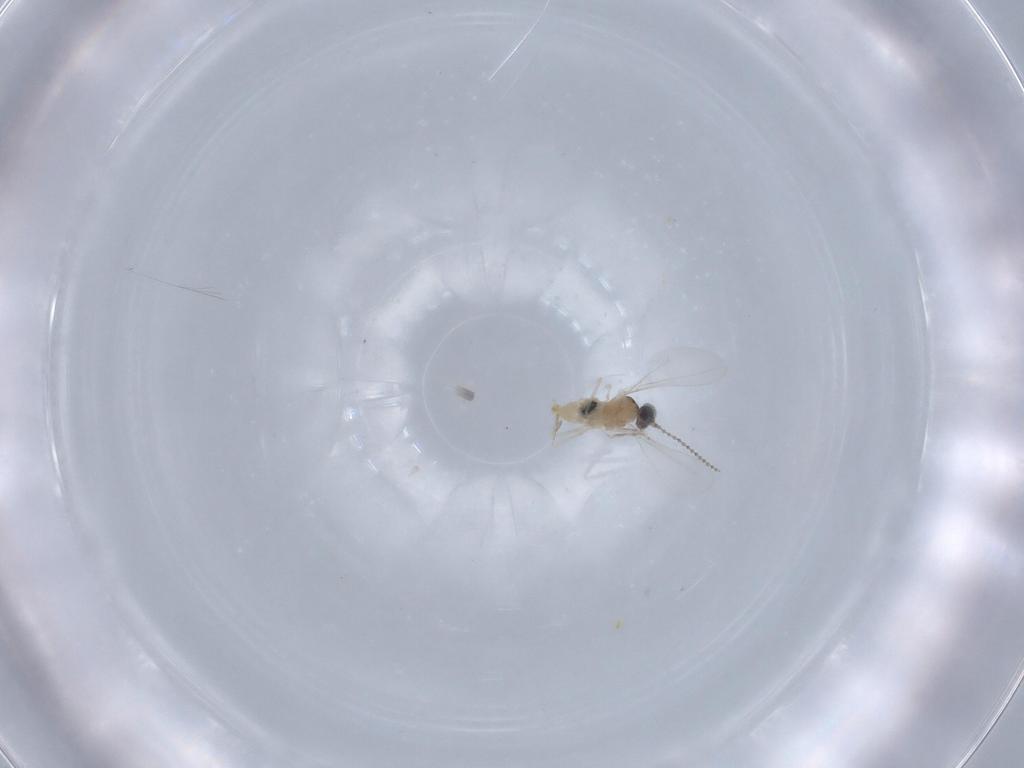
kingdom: Animalia
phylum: Arthropoda
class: Insecta
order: Diptera
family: Cecidomyiidae
